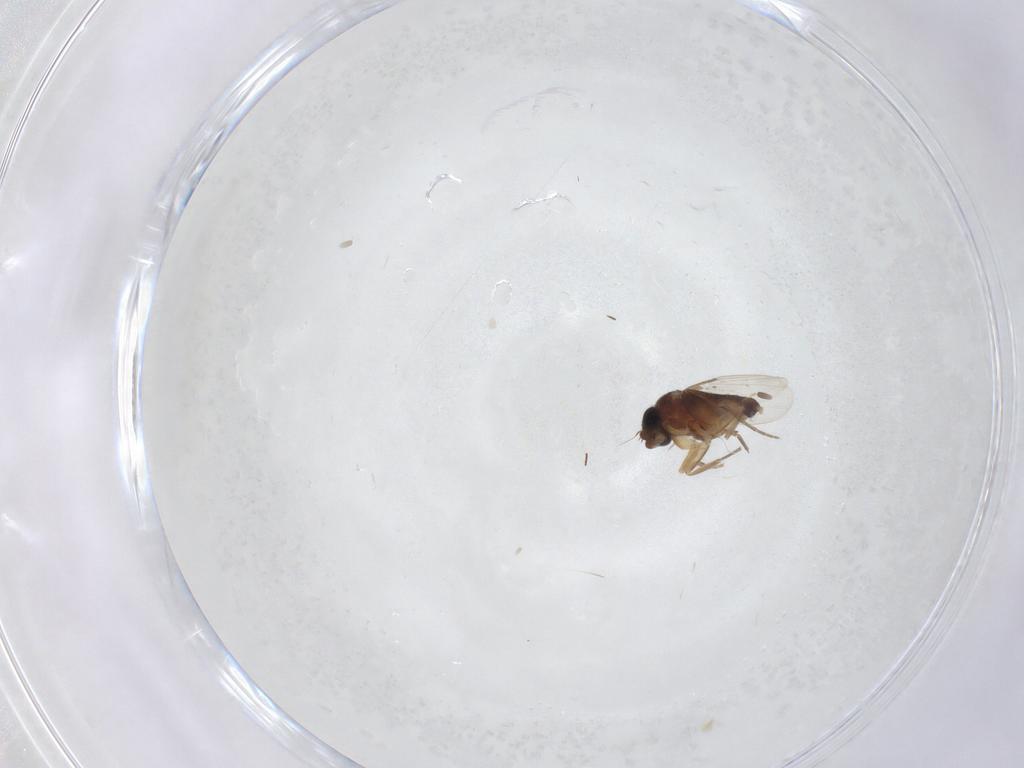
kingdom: Animalia
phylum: Arthropoda
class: Insecta
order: Diptera
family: Phoridae
